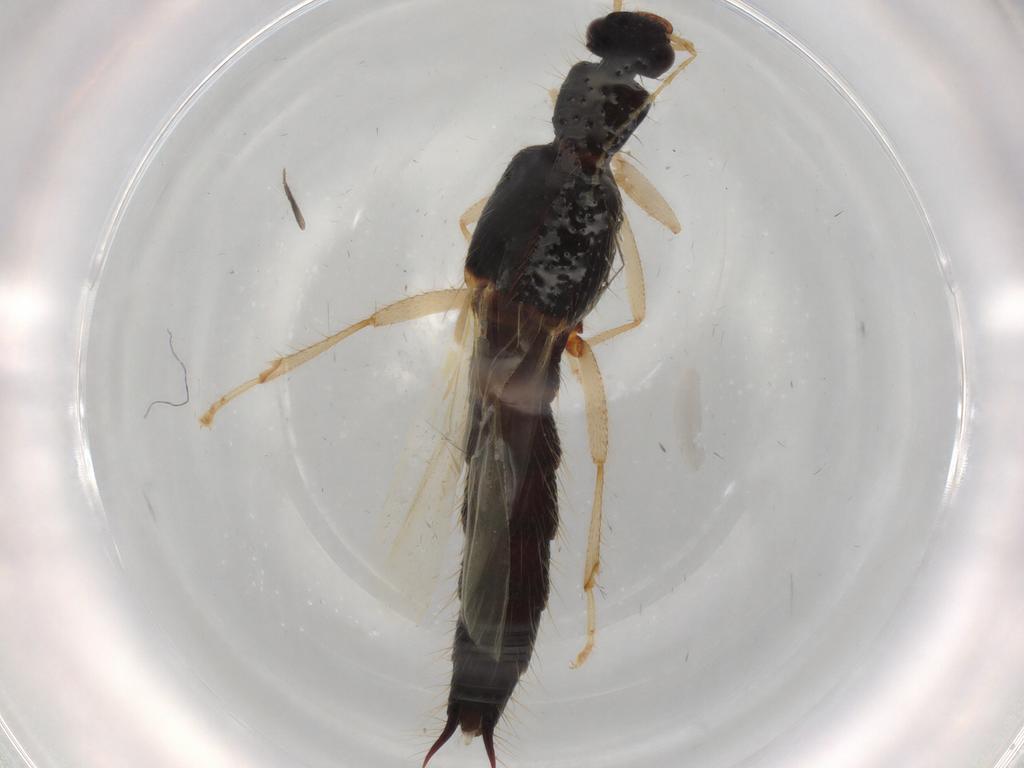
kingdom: Animalia
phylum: Arthropoda
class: Insecta
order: Coleoptera
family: Staphylinidae
